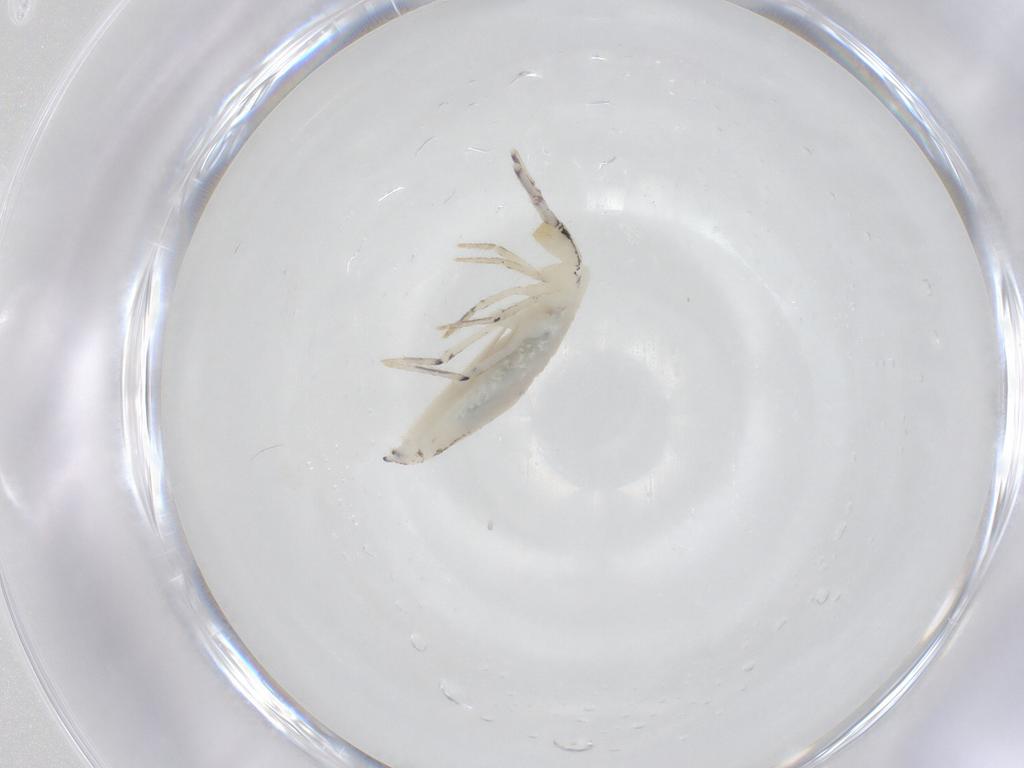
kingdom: Animalia
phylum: Arthropoda
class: Collembola
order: Entomobryomorpha
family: Entomobryidae
